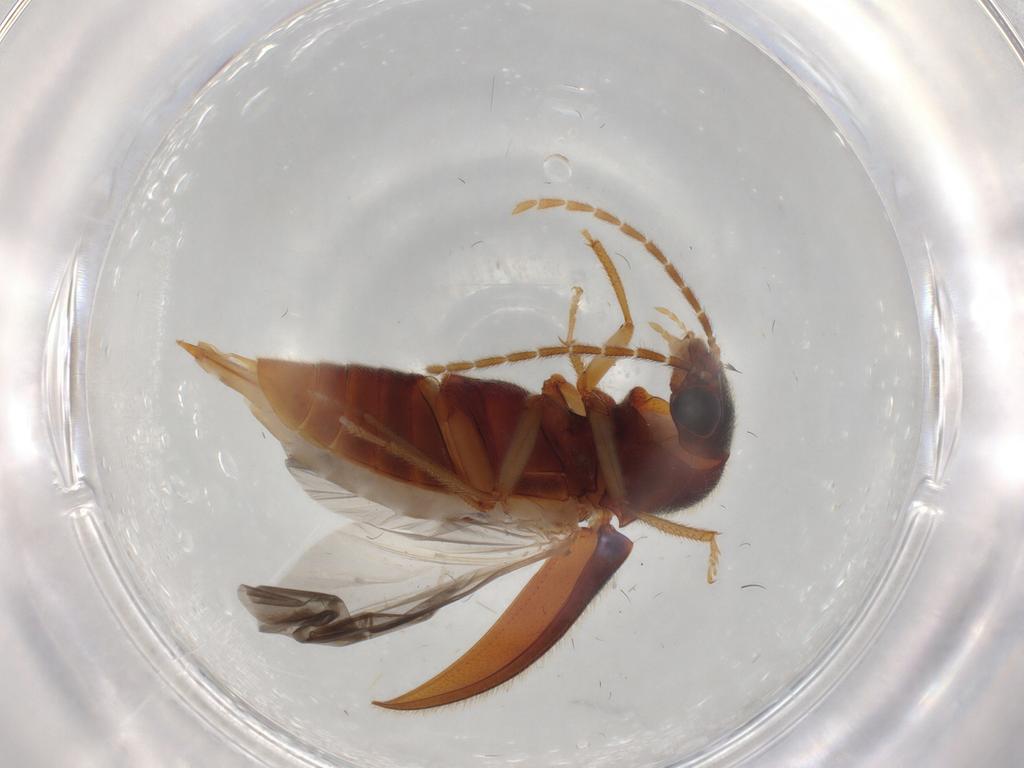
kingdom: Animalia
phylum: Arthropoda
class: Insecta
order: Coleoptera
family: Ptilodactylidae
